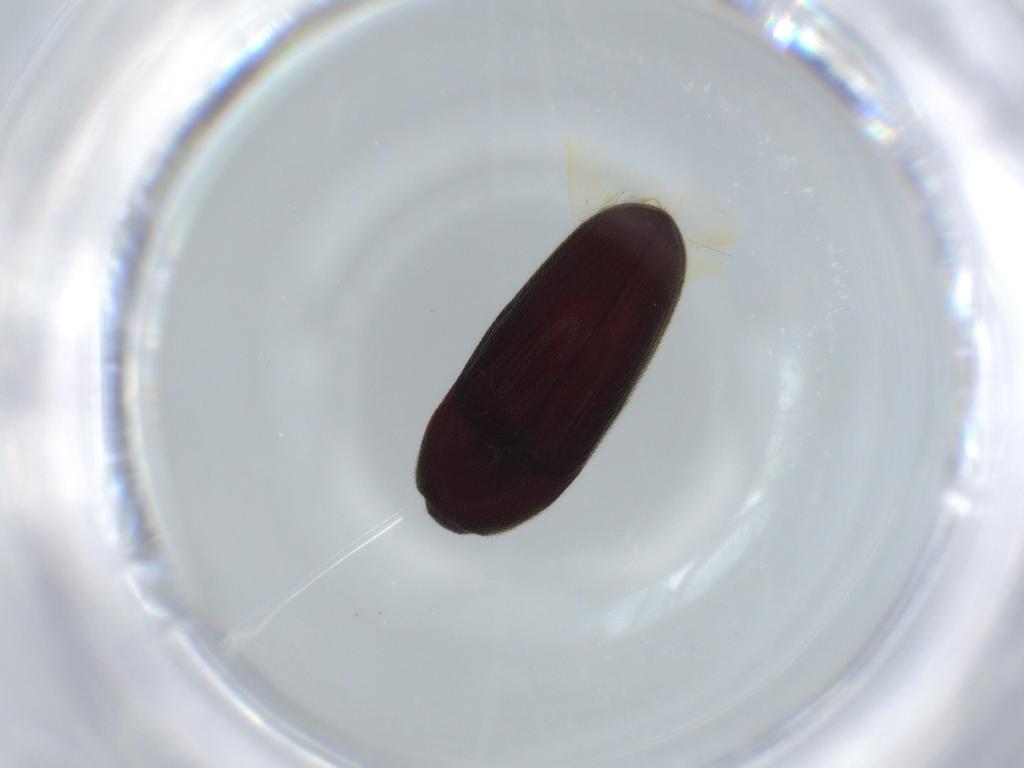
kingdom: Animalia
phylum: Arthropoda
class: Insecta
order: Coleoptera
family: Throscidae
